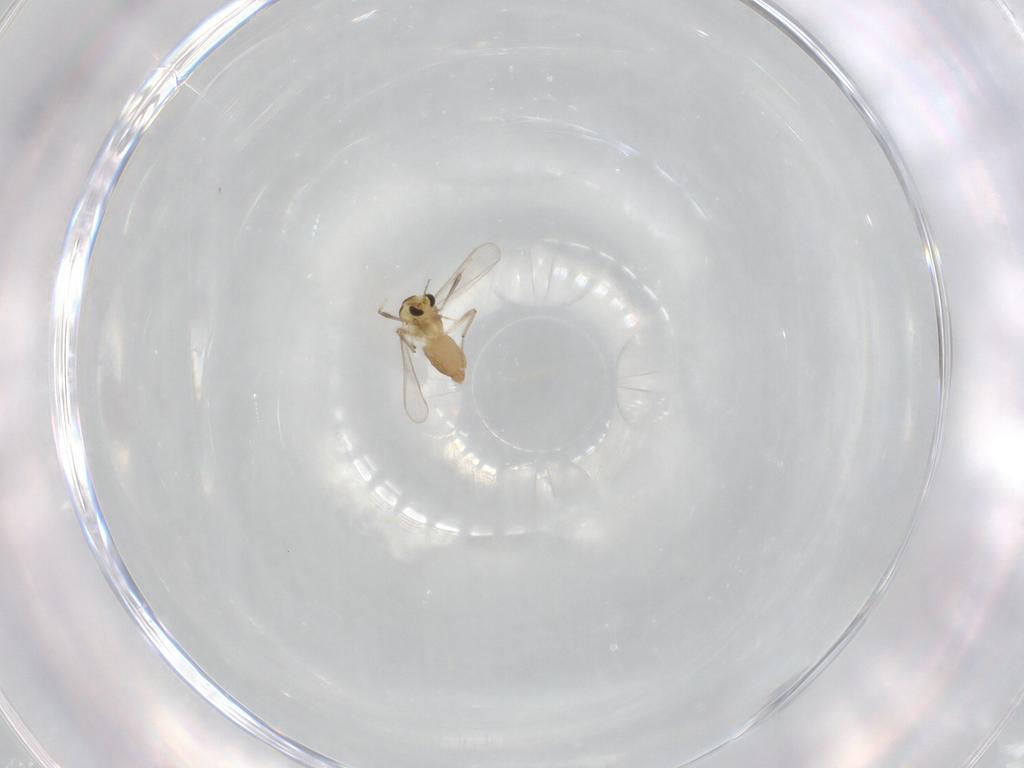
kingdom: Animalia
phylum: Arthropoda
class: Insecta
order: Diptera
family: Chironomidae
